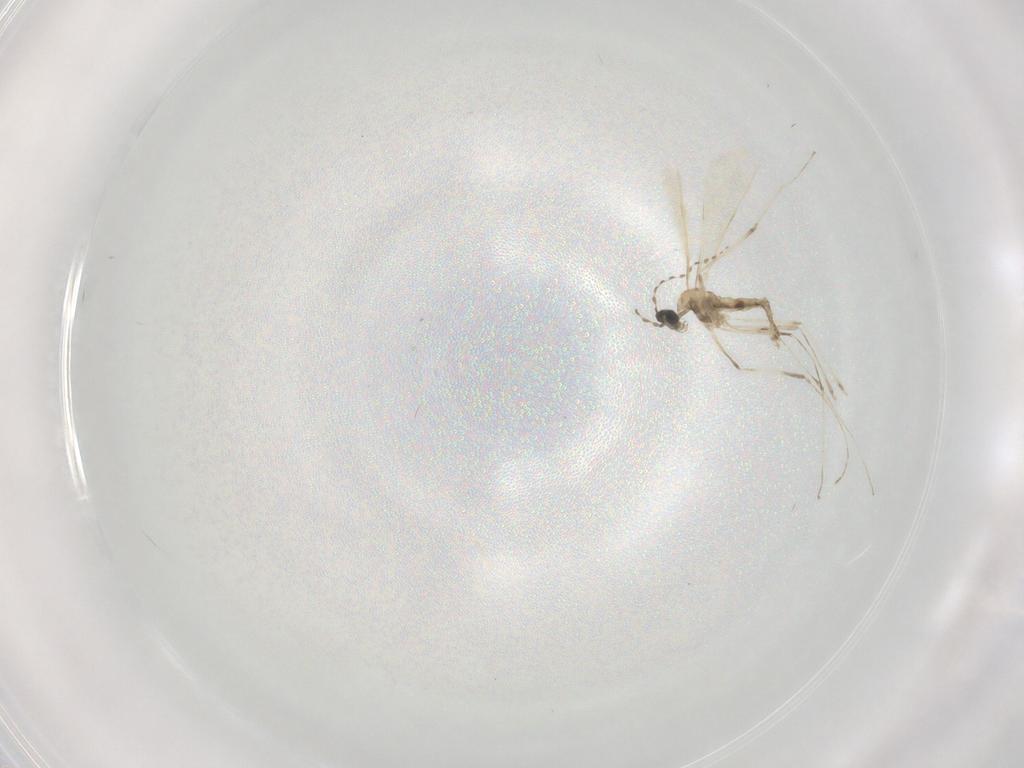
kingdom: Animalia
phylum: Arthropoda
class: Insecta
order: Diptera
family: Cecidomyiidae
